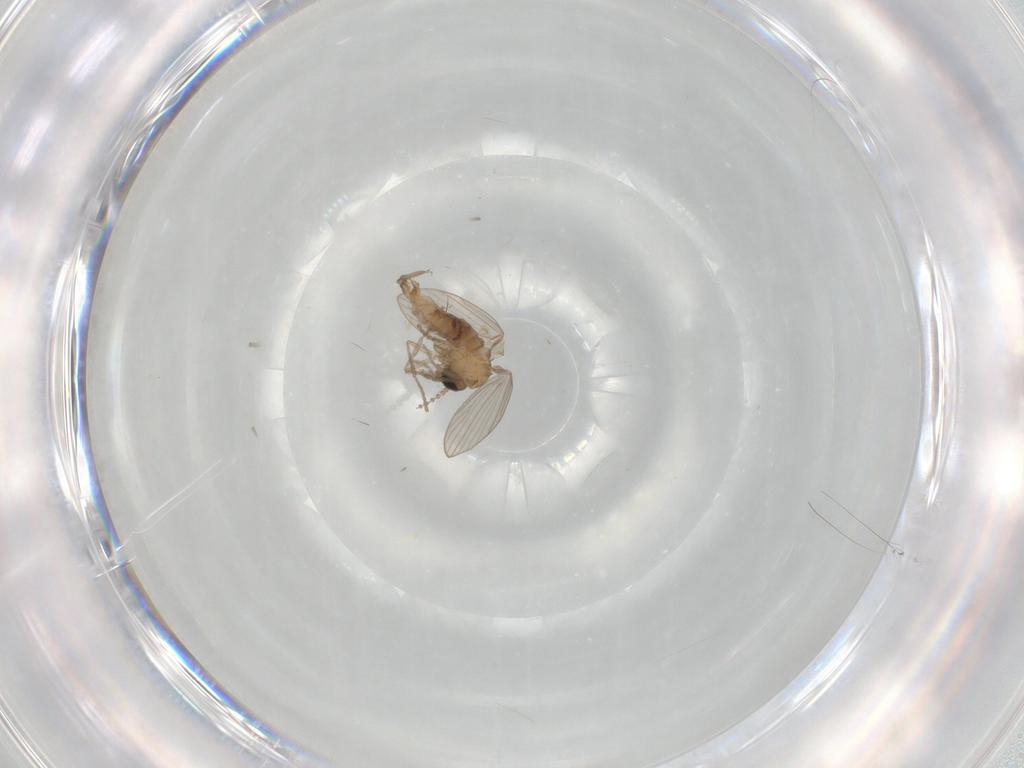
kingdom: Animalia
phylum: Arthropoda
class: Insecta
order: Diptera
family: Psychodidae
